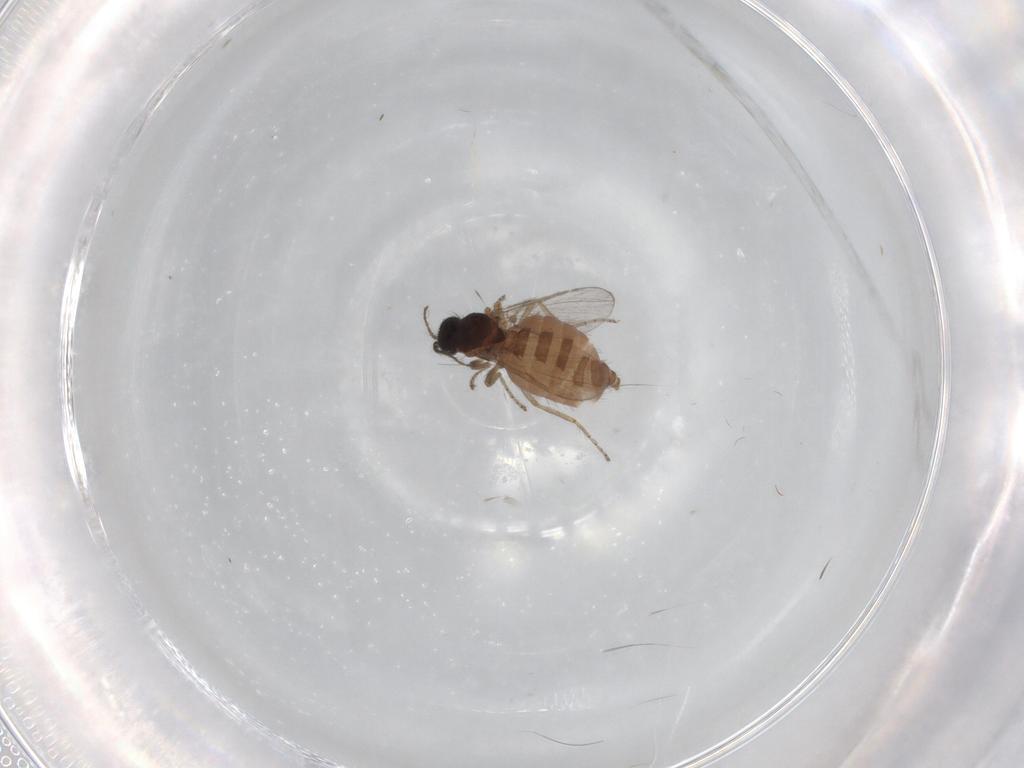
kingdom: Animalia
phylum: Arthropoda
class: Insecta
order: Diptera
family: Ceratopogonidae
